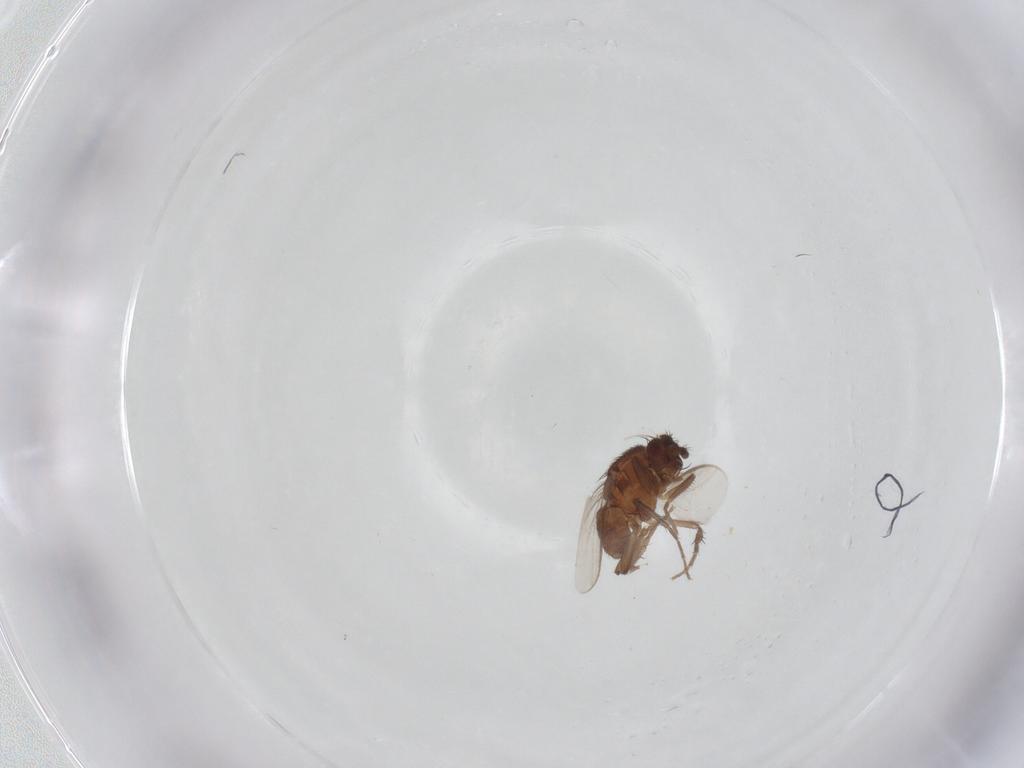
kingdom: Animalia
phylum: Arthropoda
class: Insecta
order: Diptera
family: Sphaeroceridae
